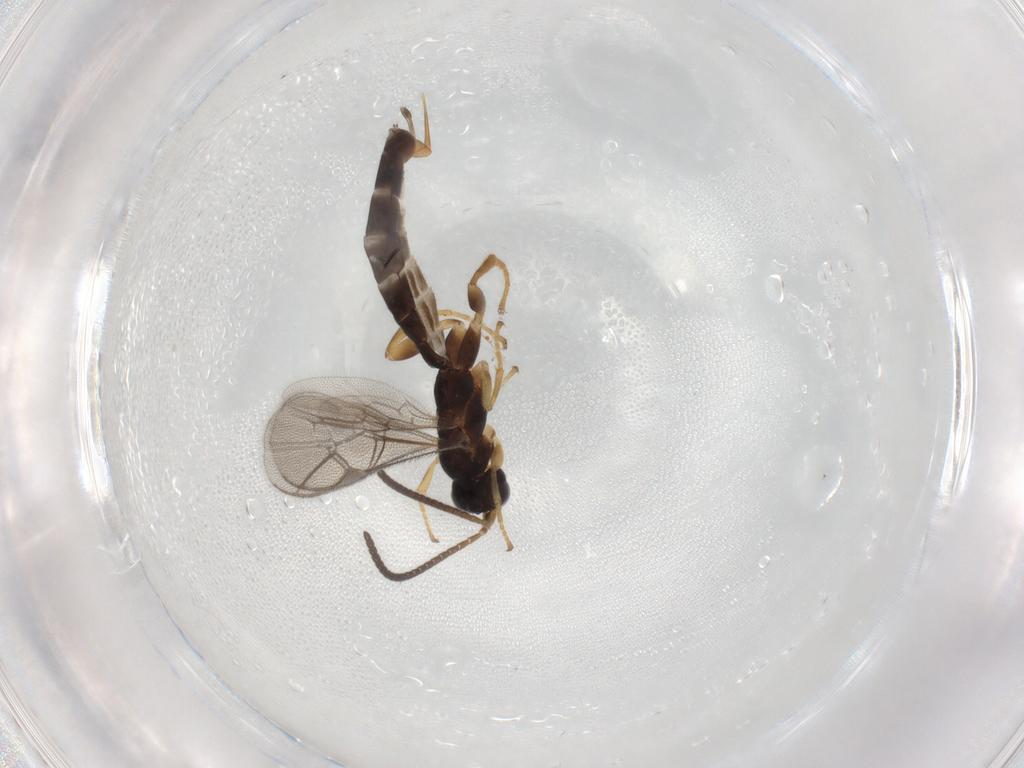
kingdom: Animalia
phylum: Arthropoda
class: Insecta
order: Hymenoptera
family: Ichneumonidae
